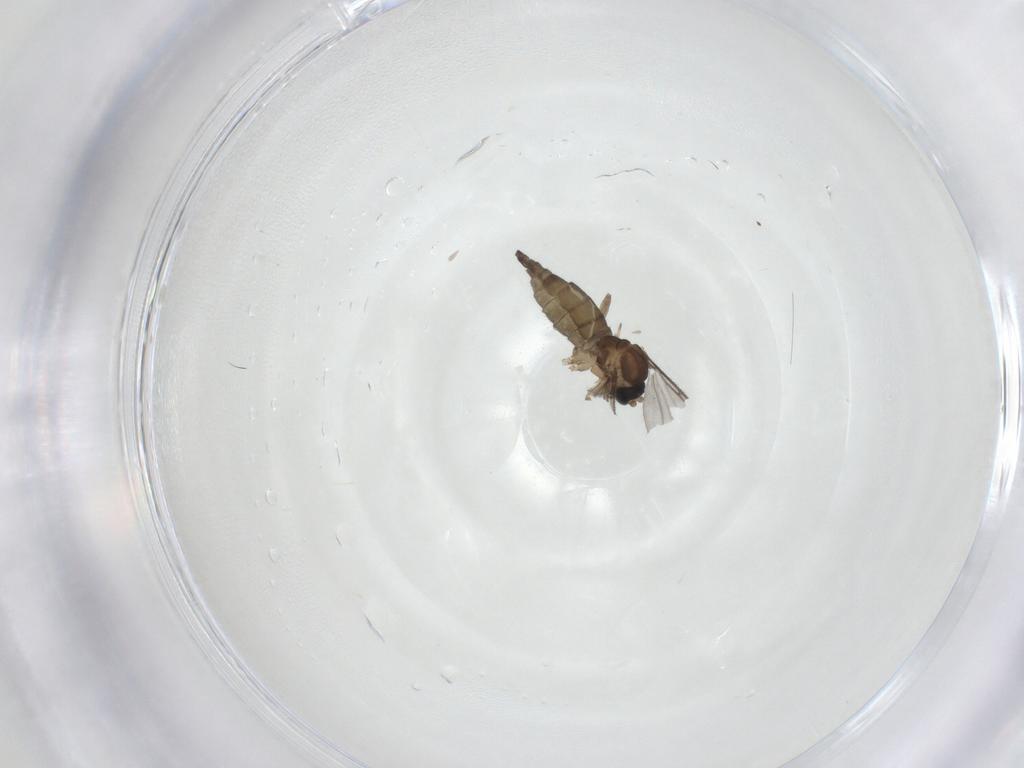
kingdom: Animalia
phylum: Arthropoda
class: Insecta
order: Diptera
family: Sciaridae
